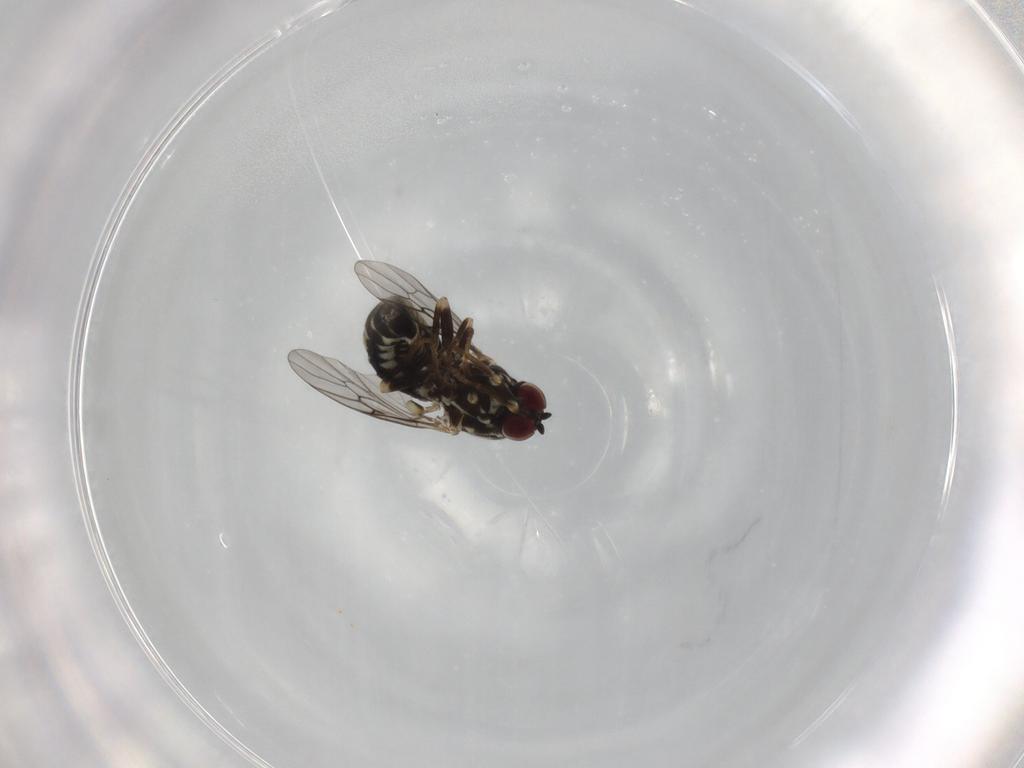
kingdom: Animalia
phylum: Arthropoda
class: Insecta
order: Diptera
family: Bombyliidae
